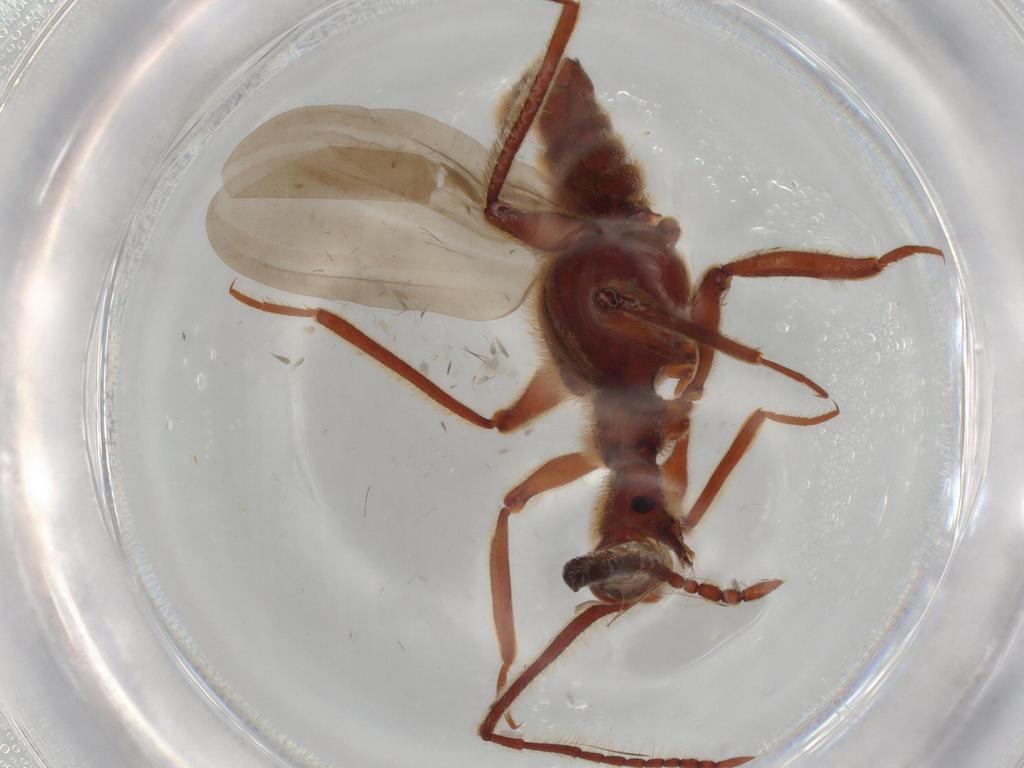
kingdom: Animalia
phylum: Arthropoda
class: Insecta
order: Coleoptera
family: Staphylinidae
